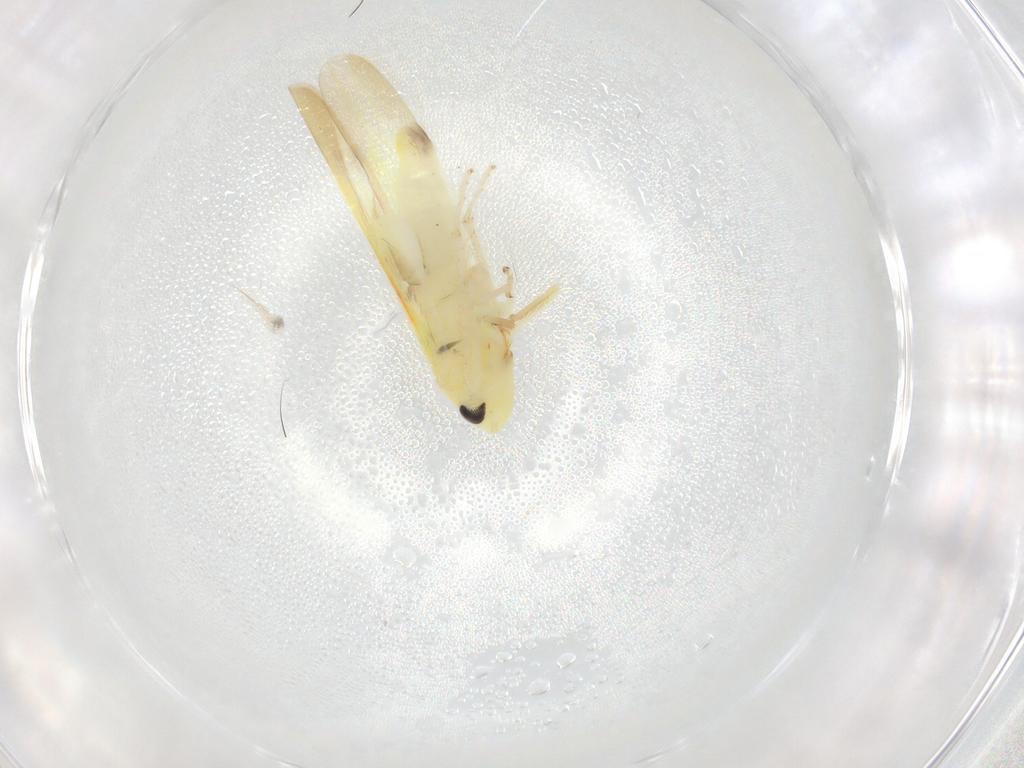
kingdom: Animalia
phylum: Arthropoda
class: Insecta
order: Hemiptera
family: Cicadellidae
